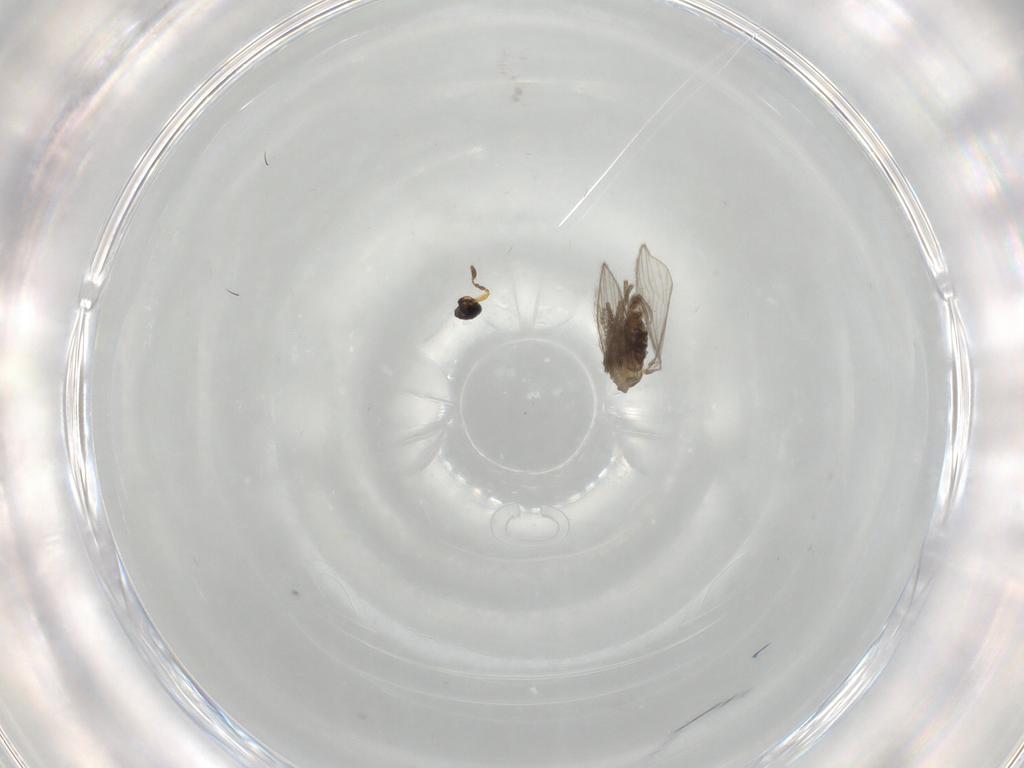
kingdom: Animalia
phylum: Arthropoda
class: Insecta
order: Diptera
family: Psychodidae
